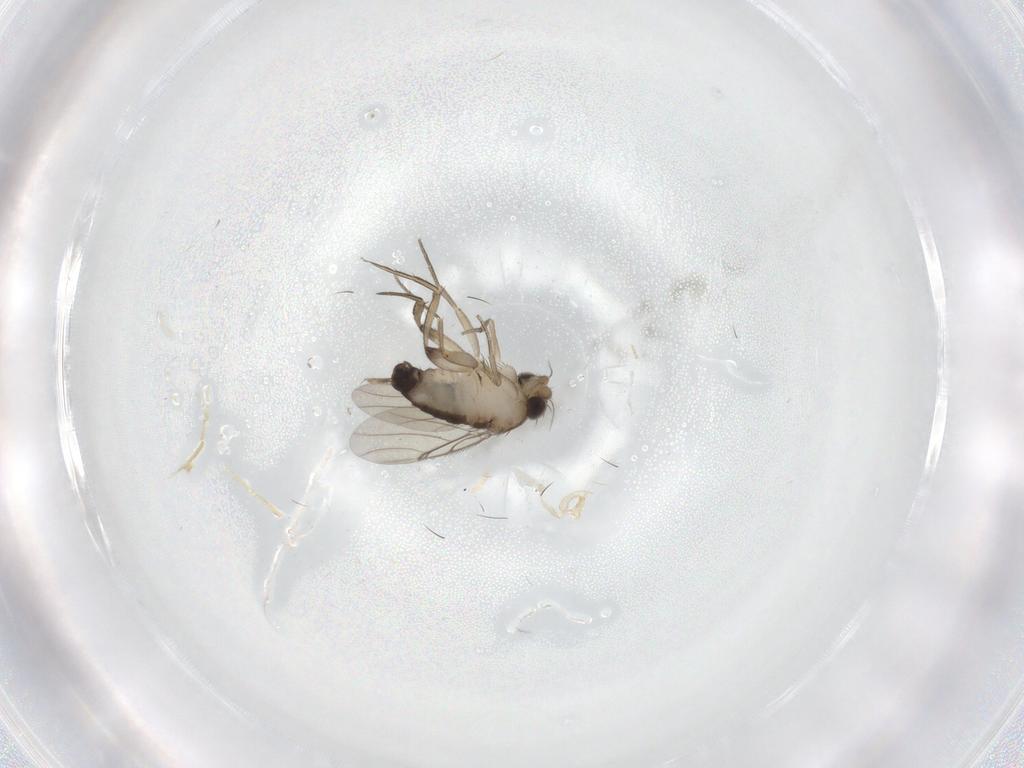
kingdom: Animalia
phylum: Arthropoda
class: Insecta
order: Diptera
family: Phoridae
